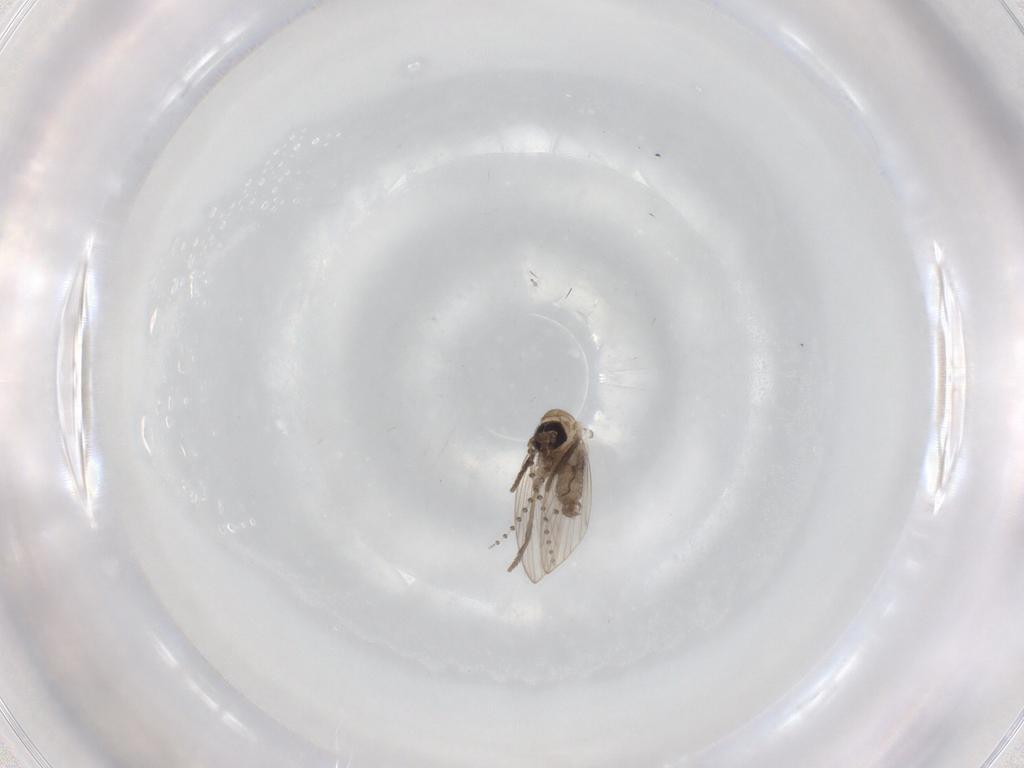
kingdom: Animalia
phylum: Arthropoda
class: Insecta
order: Diptera
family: Psychodidae
